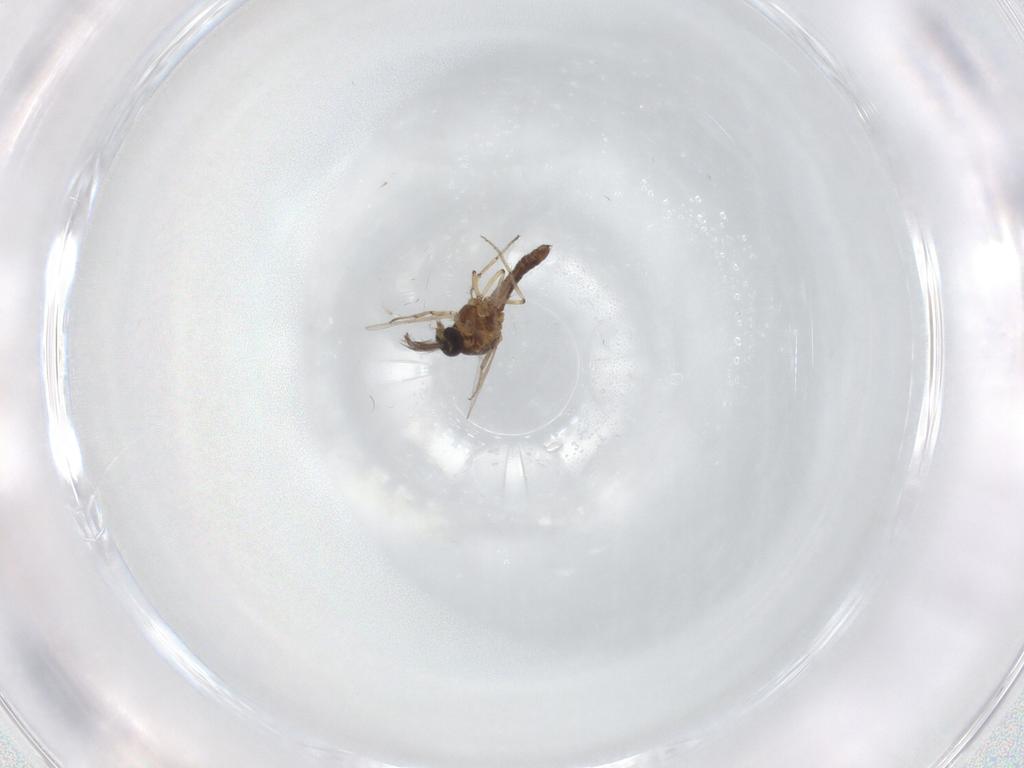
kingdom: Animalia
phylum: Arthropoda
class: Insecta
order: Diptera
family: Ceratopogonidae
